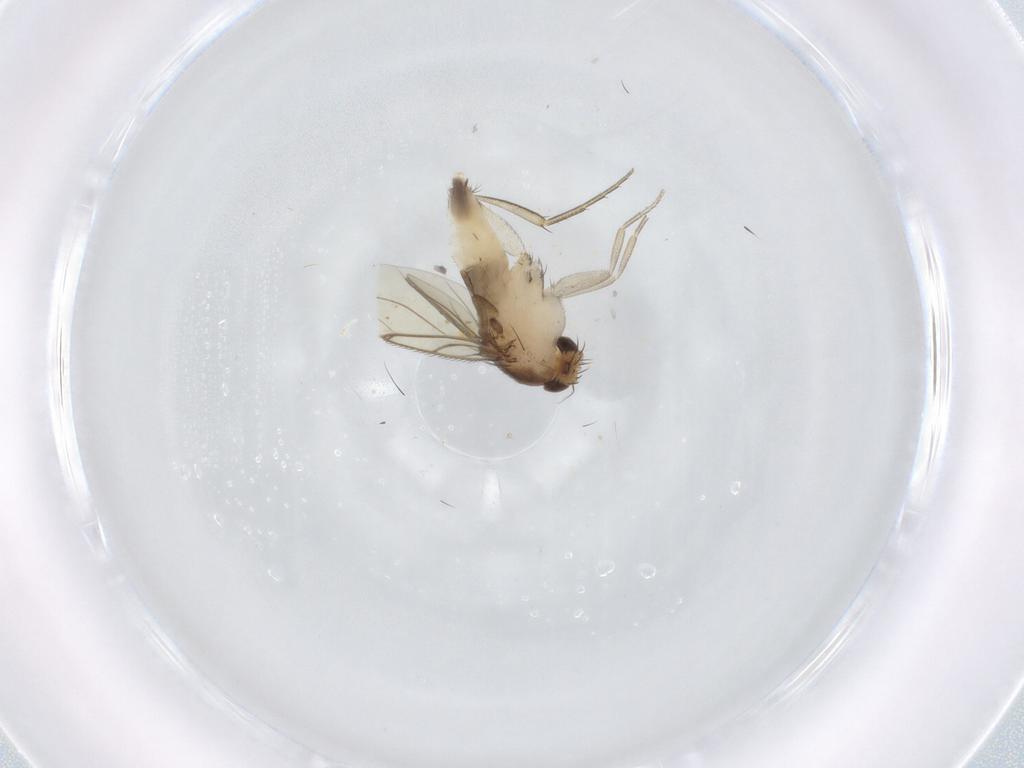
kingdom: Animalia
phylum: Arthropoda
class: Insecta
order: Diptera
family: Phoridae
